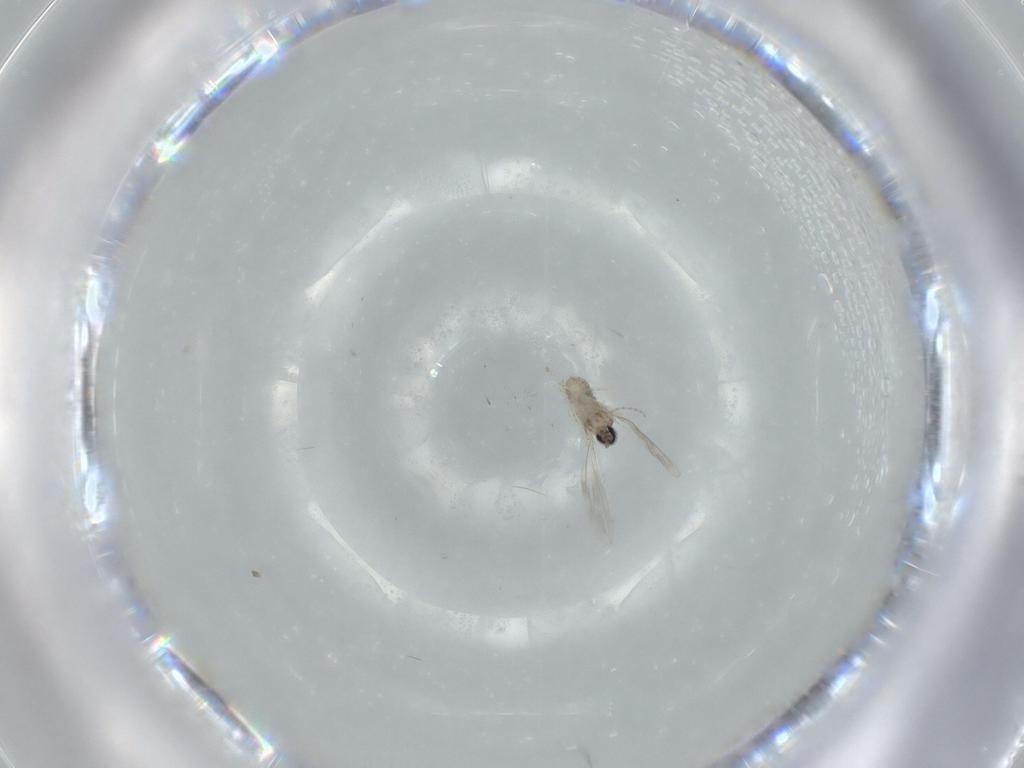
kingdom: Animalia
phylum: Arthropoda
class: Insecta
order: Diptera
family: Cecidomyiidae
